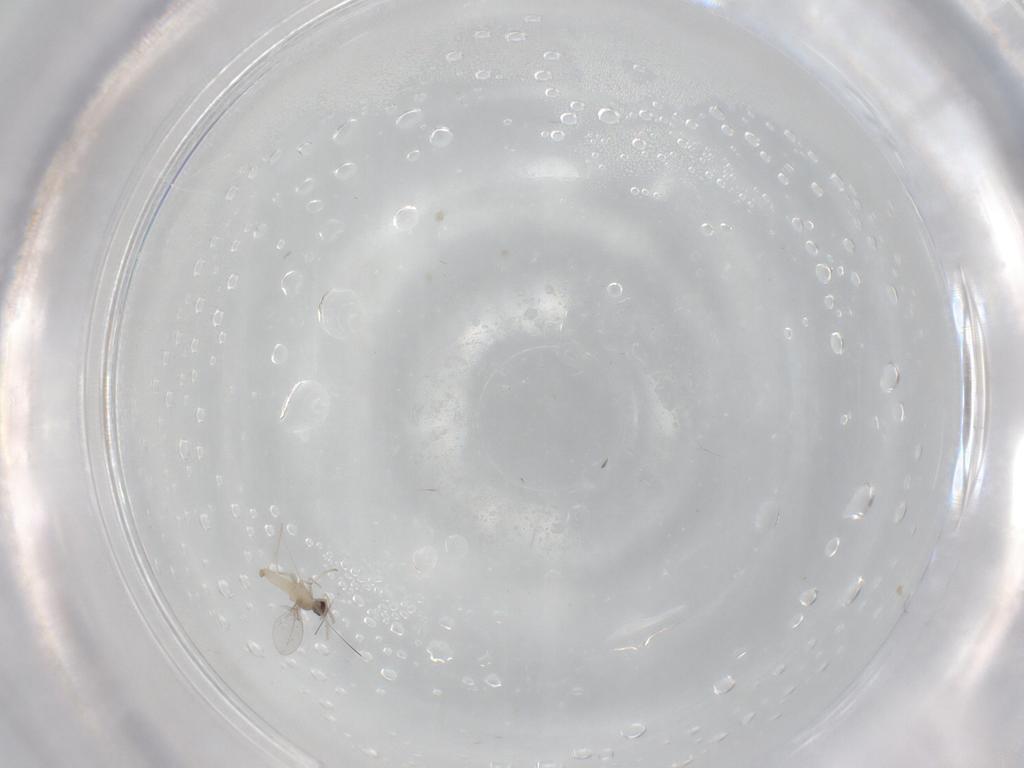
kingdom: Animalia
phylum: Arthropoda
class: Insecta
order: Diptera
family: Dolichopodidae
